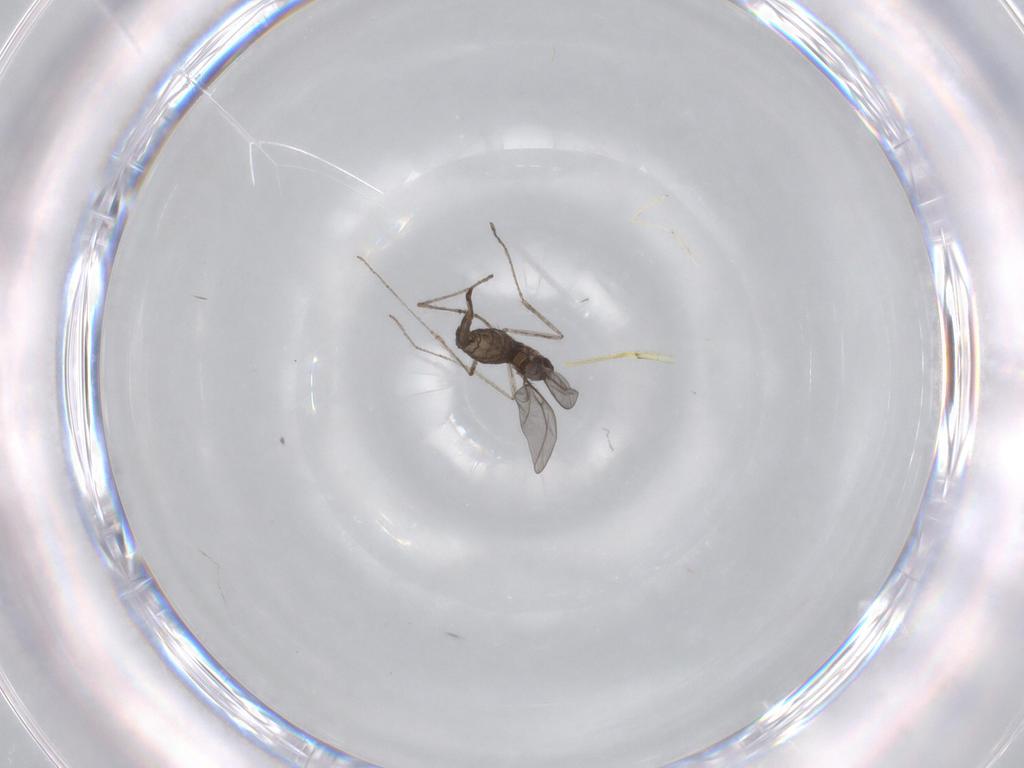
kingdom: Animalia
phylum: Arthropoda
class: Insecta
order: Diptera
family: Cecidomyiidae
